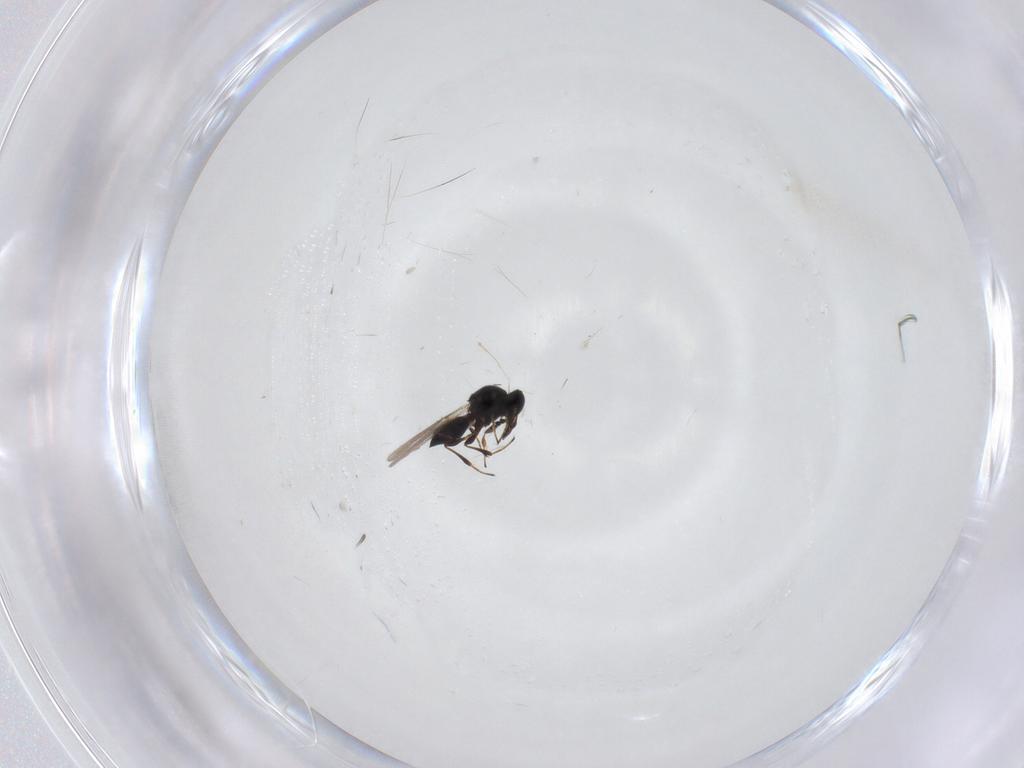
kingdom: Animalia
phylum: Arthropoda
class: Insecta
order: Hymenoptera
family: Platygastridae
